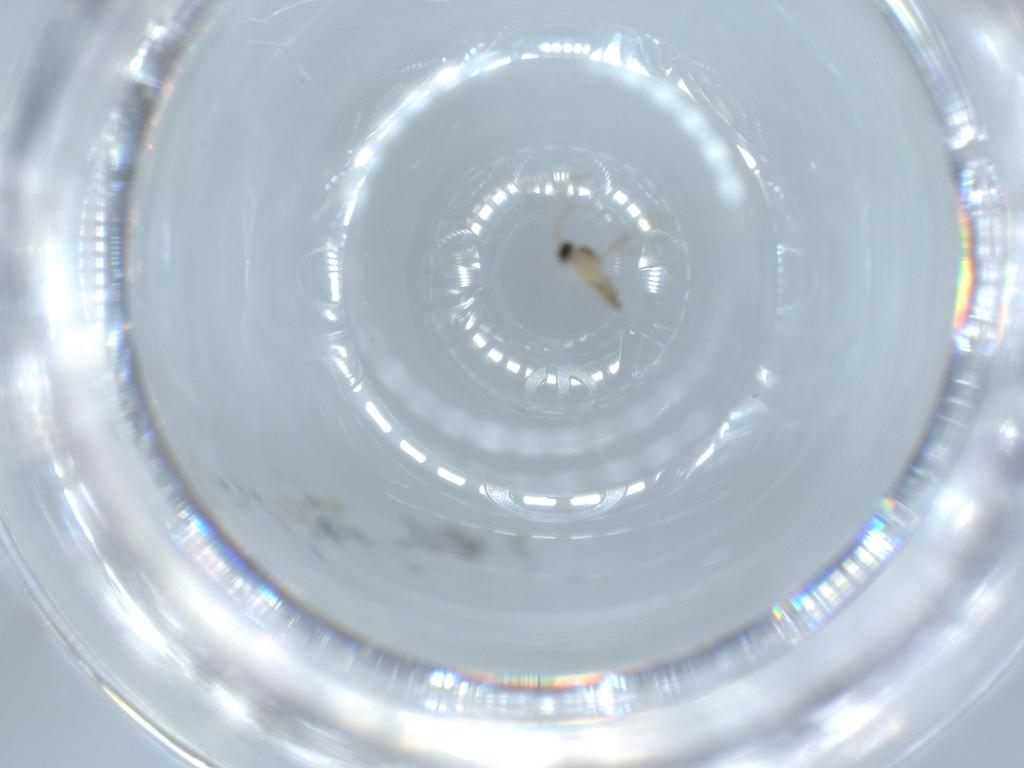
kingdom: Animalia
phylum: Arthropoda
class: Insecta
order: Diptera
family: Cecidomyiidae
